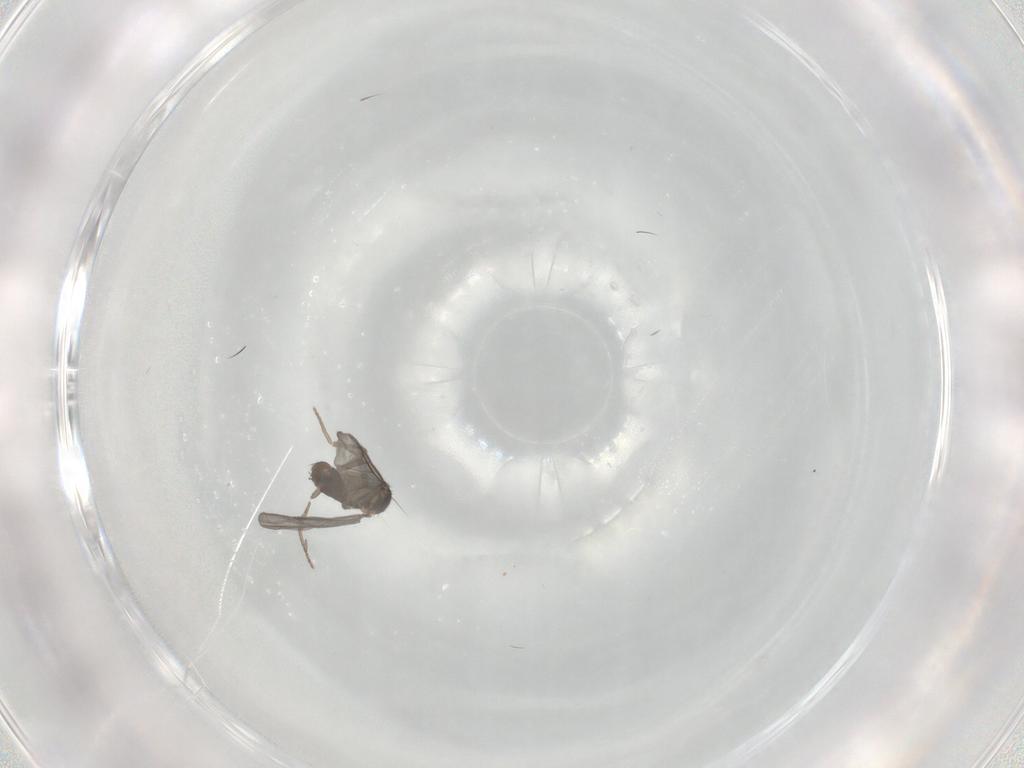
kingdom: Animalia
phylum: Arthropoda
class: Insecta
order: Diptera
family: Phoridae
